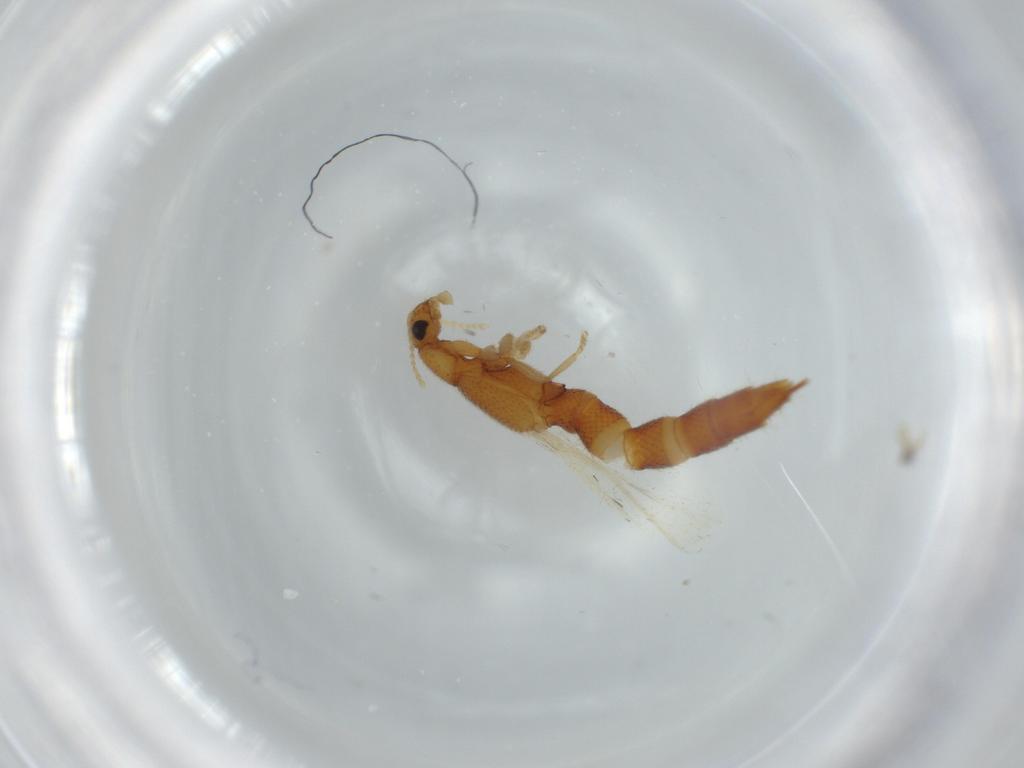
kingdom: Animalia
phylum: Arthropoda
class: Insecta
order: Coleoptera
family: Staphylinidae
